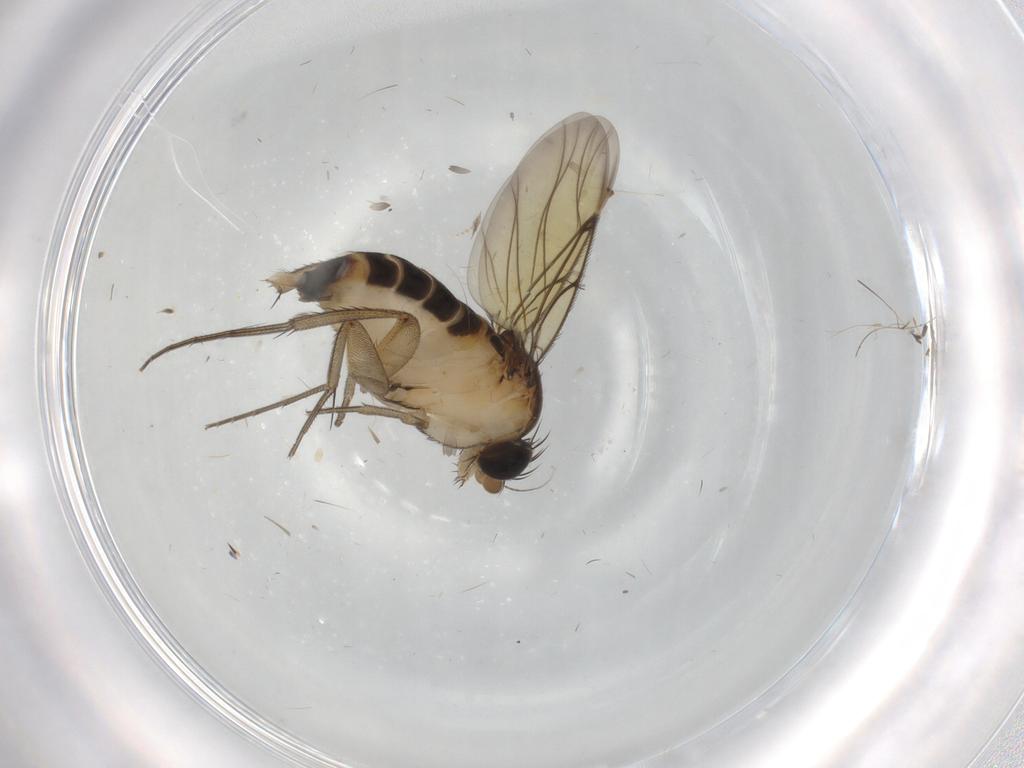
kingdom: Animalia
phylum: Arthropoda
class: Insecta
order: Diptera
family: Phoridae
